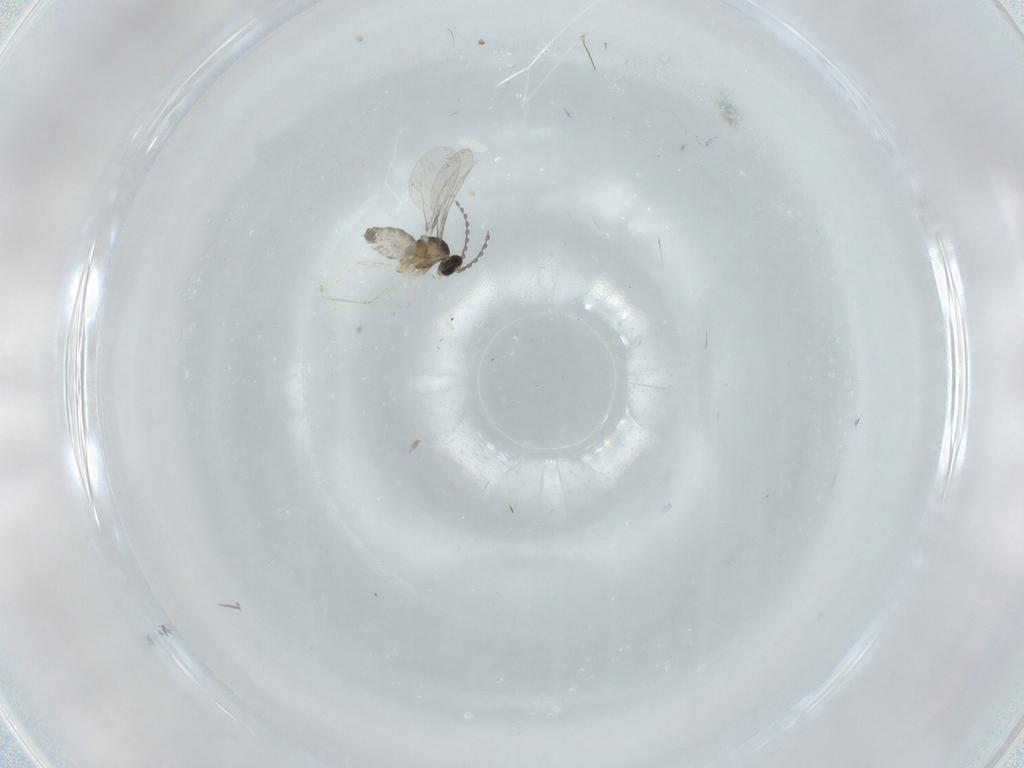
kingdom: Animalia
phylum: Arthropoda
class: Insecta
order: Diptera
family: Cecidomyiidae
